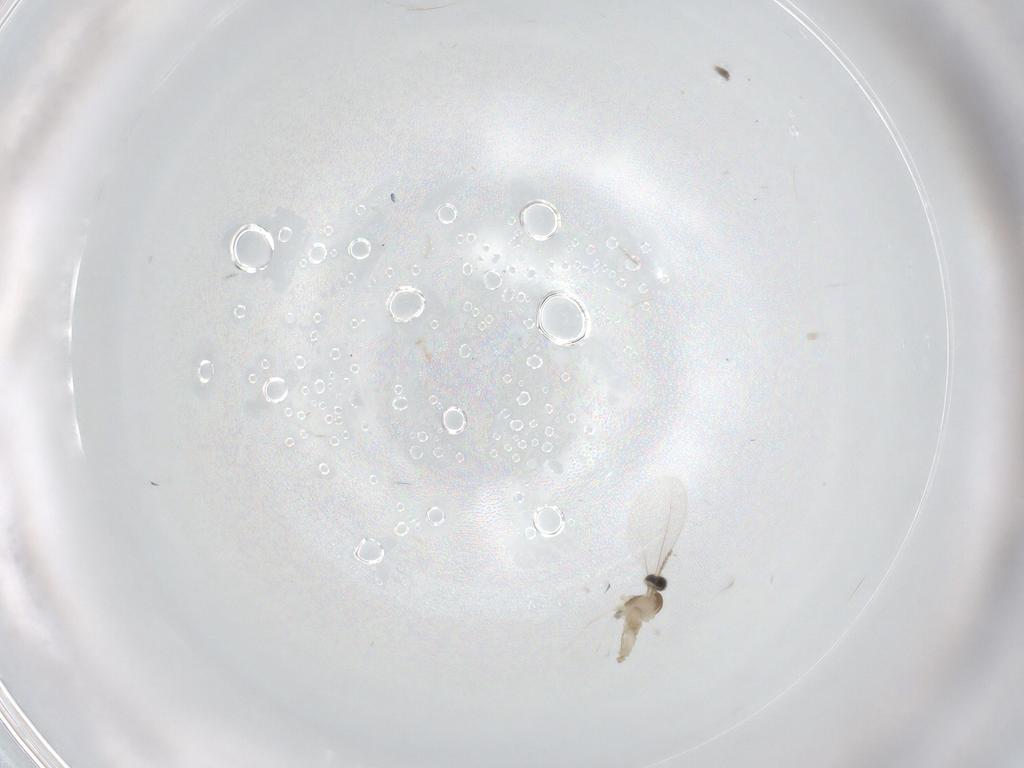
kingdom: Animalia
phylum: Arthropoda
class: Insecta
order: Diptera
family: Cecidomyiidae
